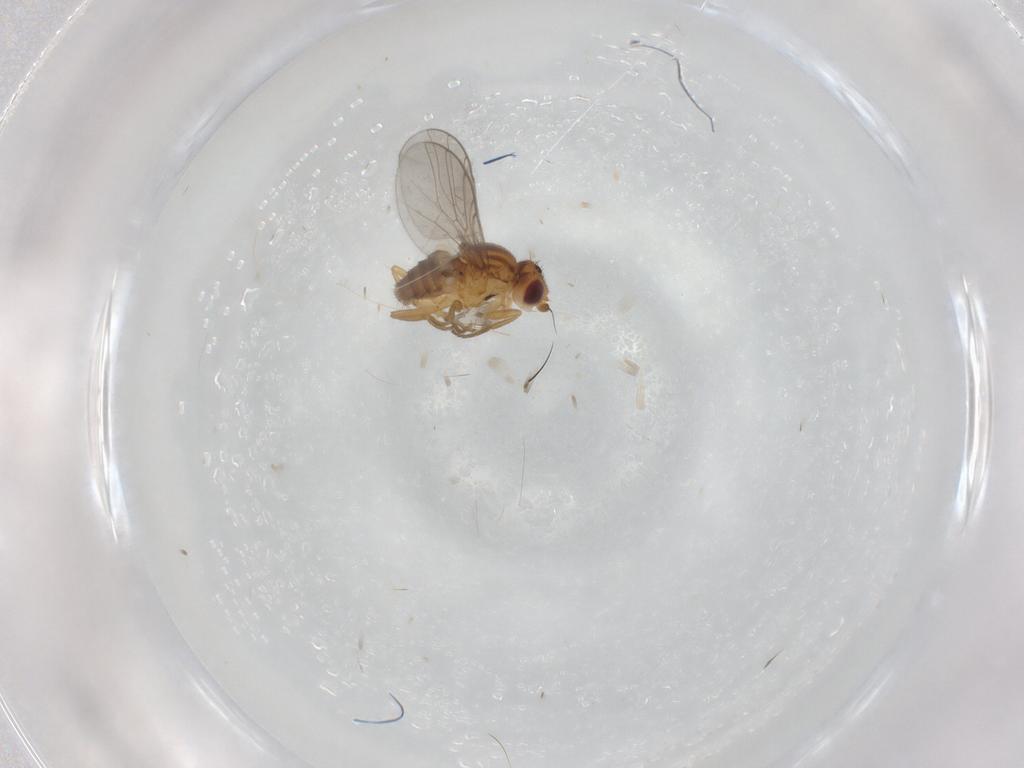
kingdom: Animalia
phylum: Arthropoda
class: Insecta
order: Diptera
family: Chloropidae
